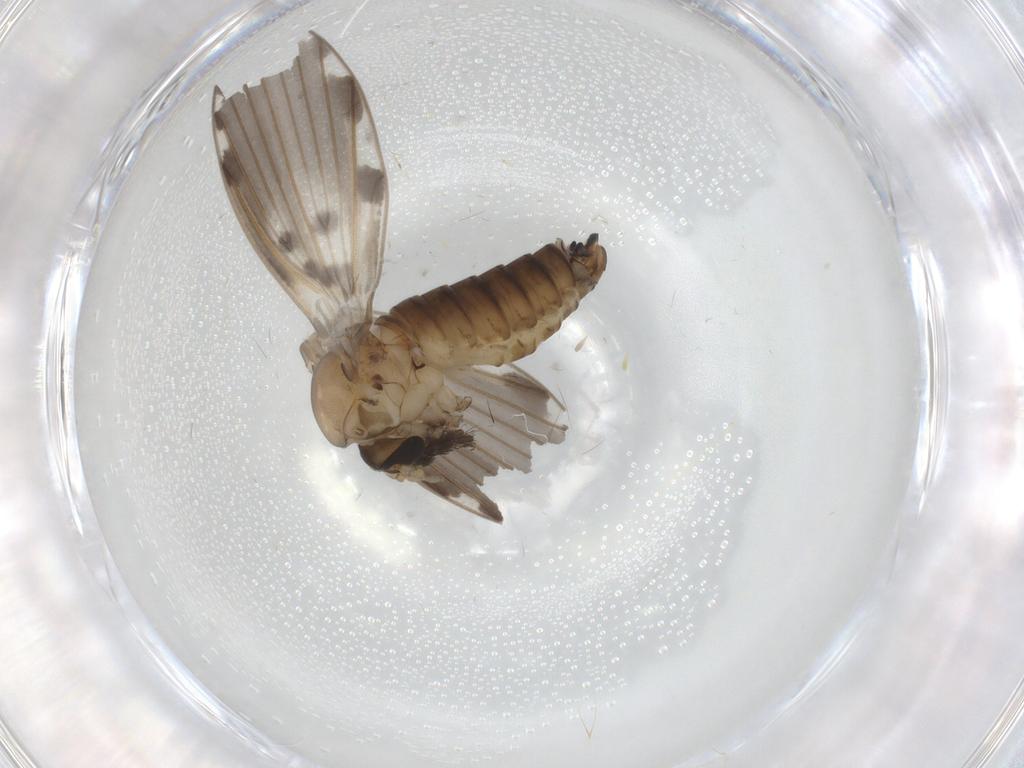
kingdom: Animalia
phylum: Arthropoda
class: Insecta
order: Diptera
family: Psychodidae
